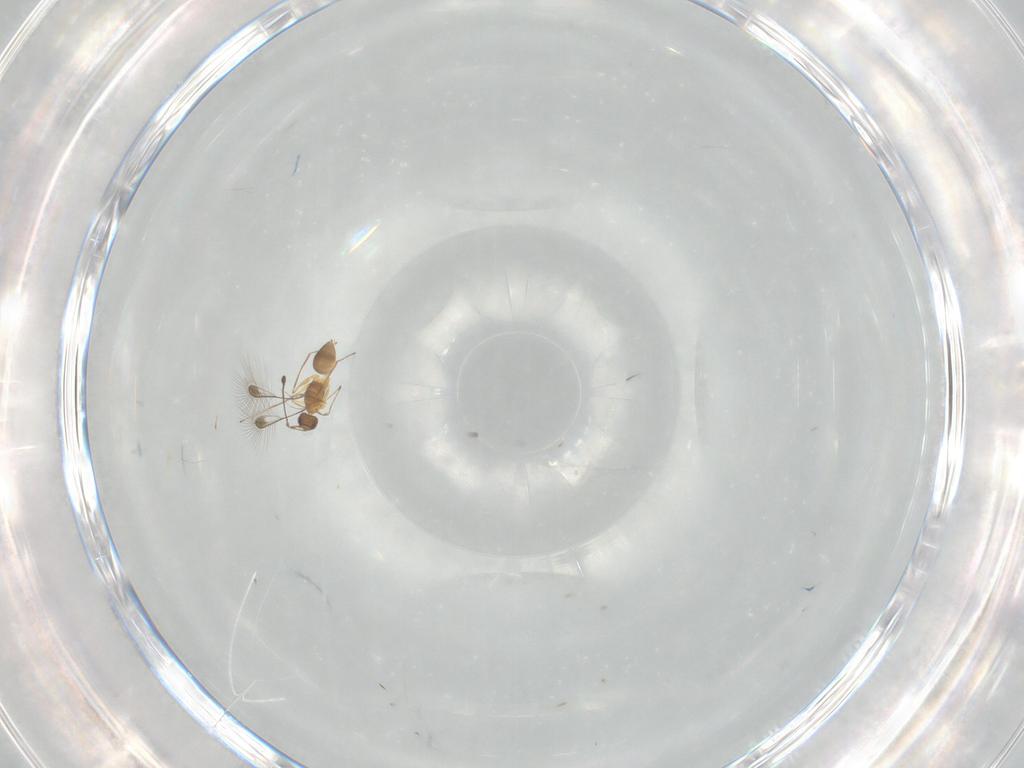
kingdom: Animalia
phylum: Arthropoda
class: Insecta
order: Hymenoptera
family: Mymaridae
